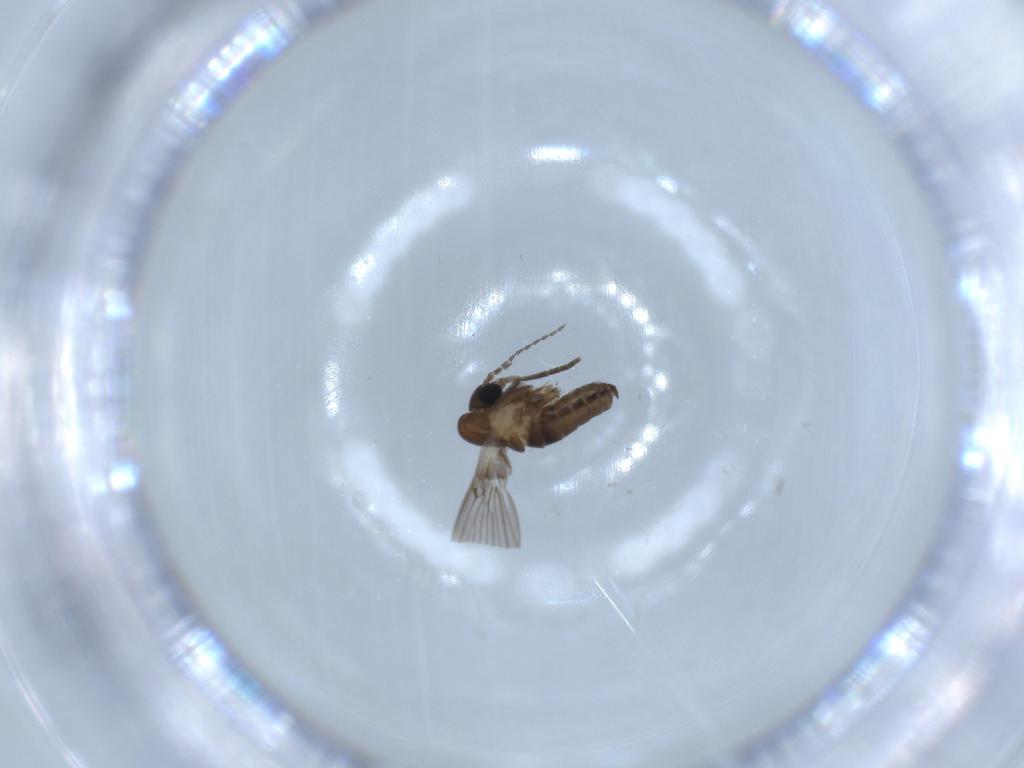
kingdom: Animalia
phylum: Arthropoda
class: Insecta
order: Diptera
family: Psychodidae
